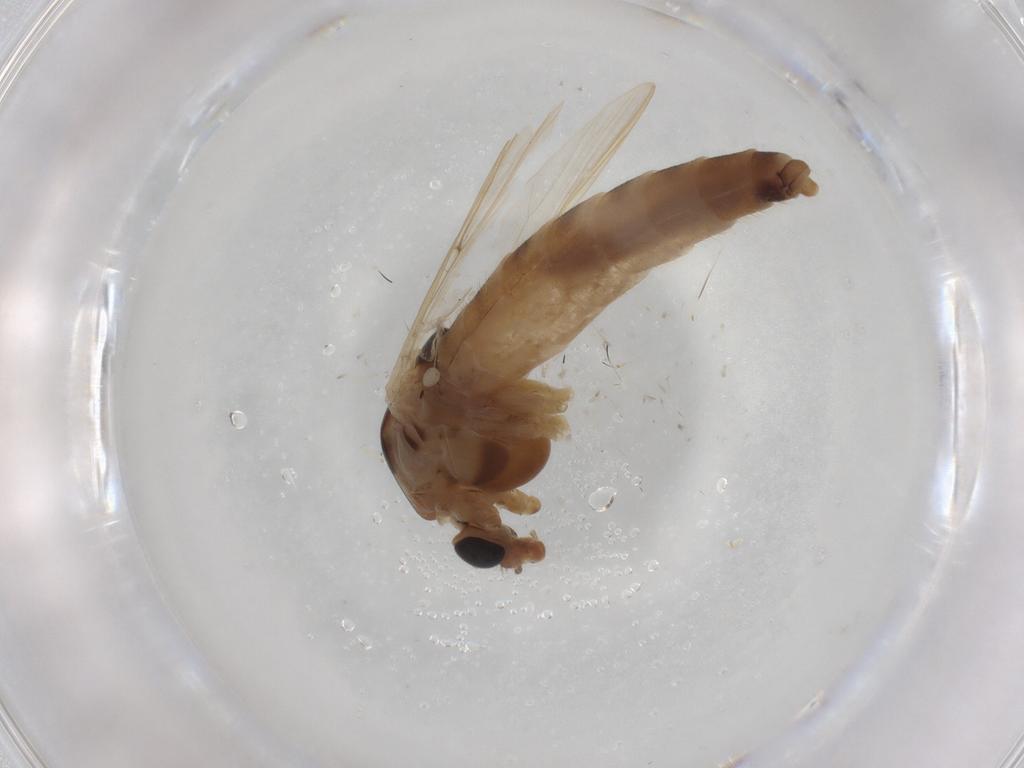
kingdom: Animalia
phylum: Arthropoda
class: Insecta
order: Diptera
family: Chironomidae
